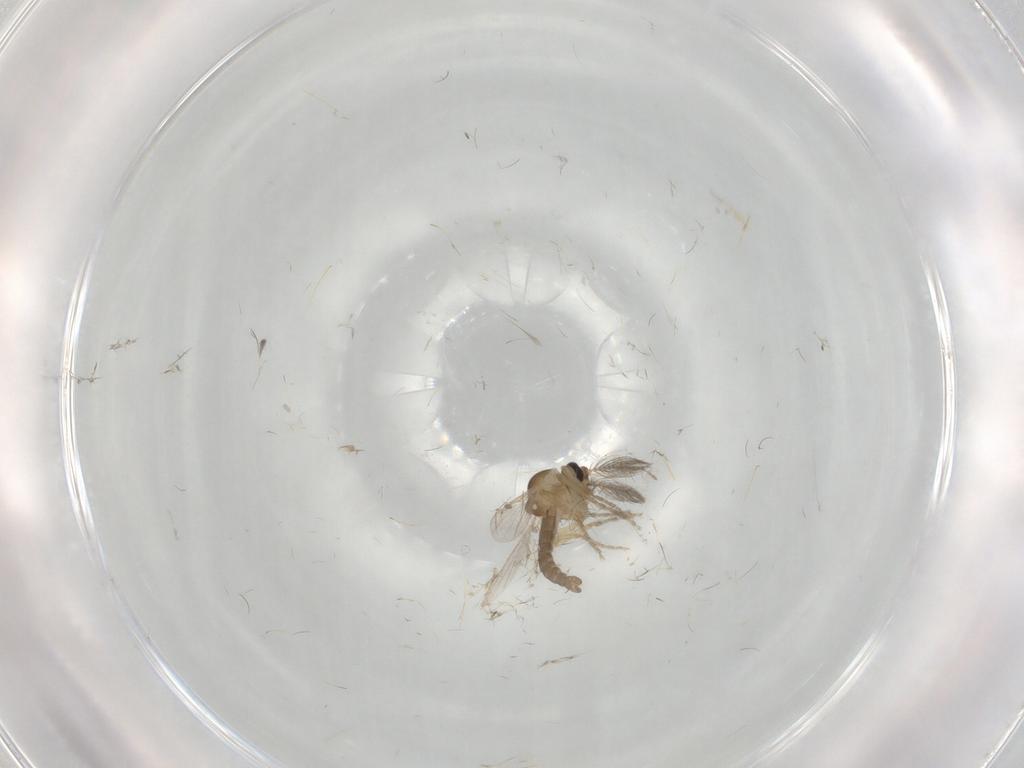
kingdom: Animalia
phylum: Arthropoda
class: Insecta
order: Diptera
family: Ceratopogonidae
